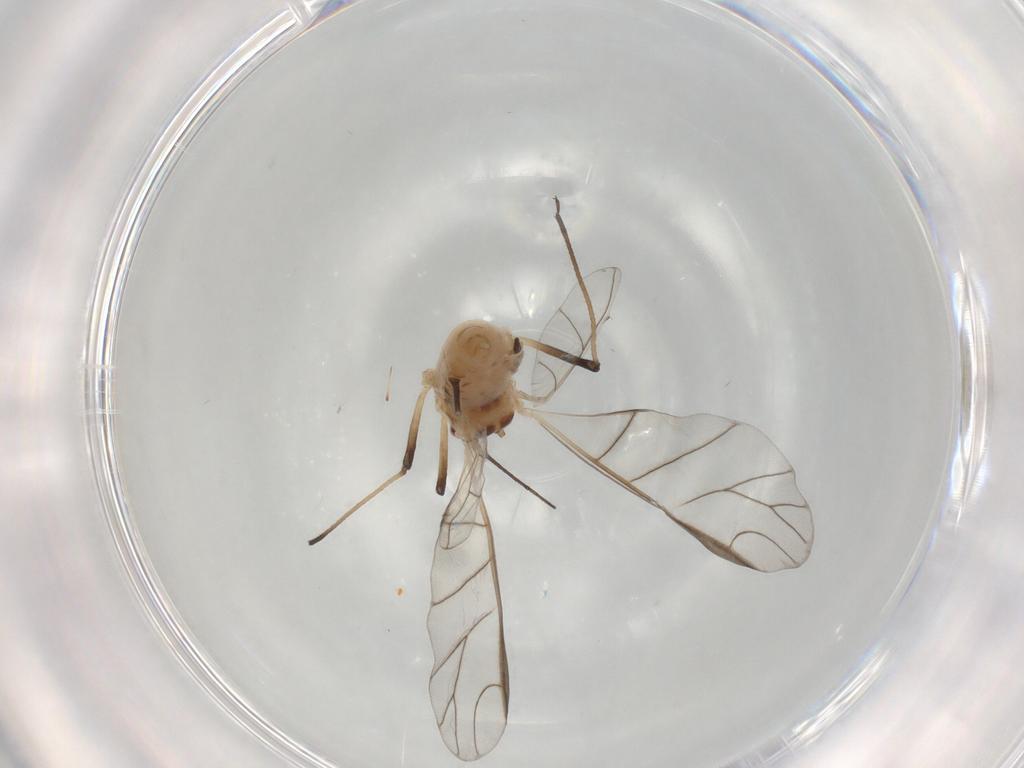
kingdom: Animalia
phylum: Arthropoda
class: Insecta
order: Hemiptera
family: Aphididae
